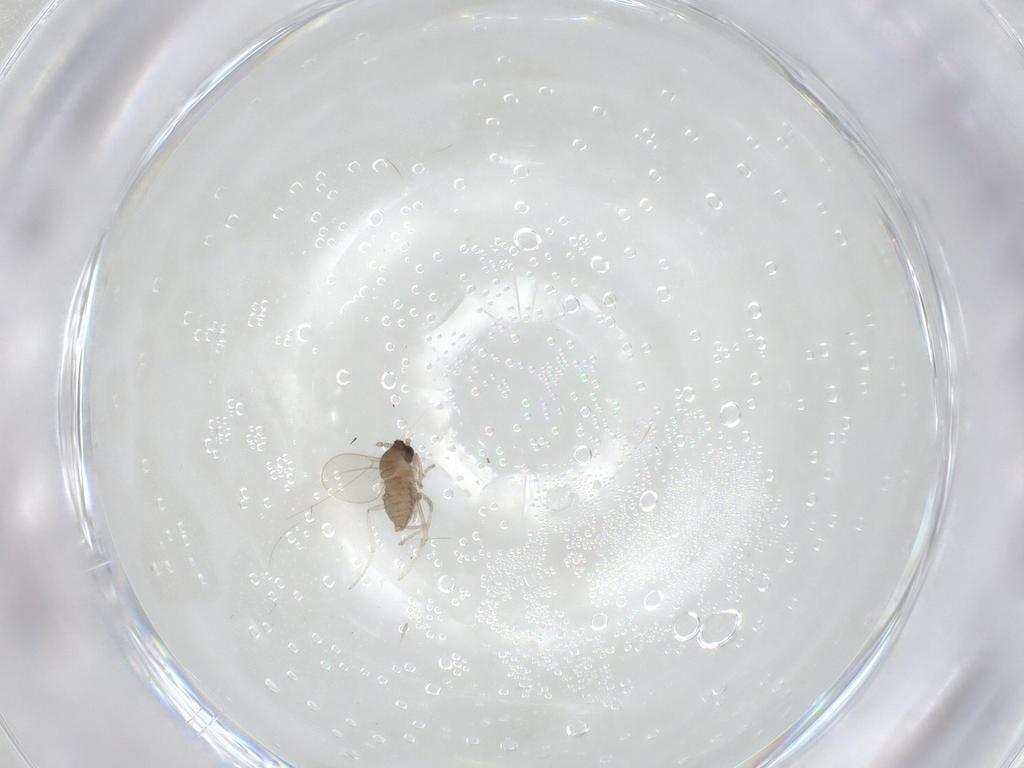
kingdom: Animalia
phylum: Arthropoda
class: Insecta
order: Diptera
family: Cecidomyiidae
